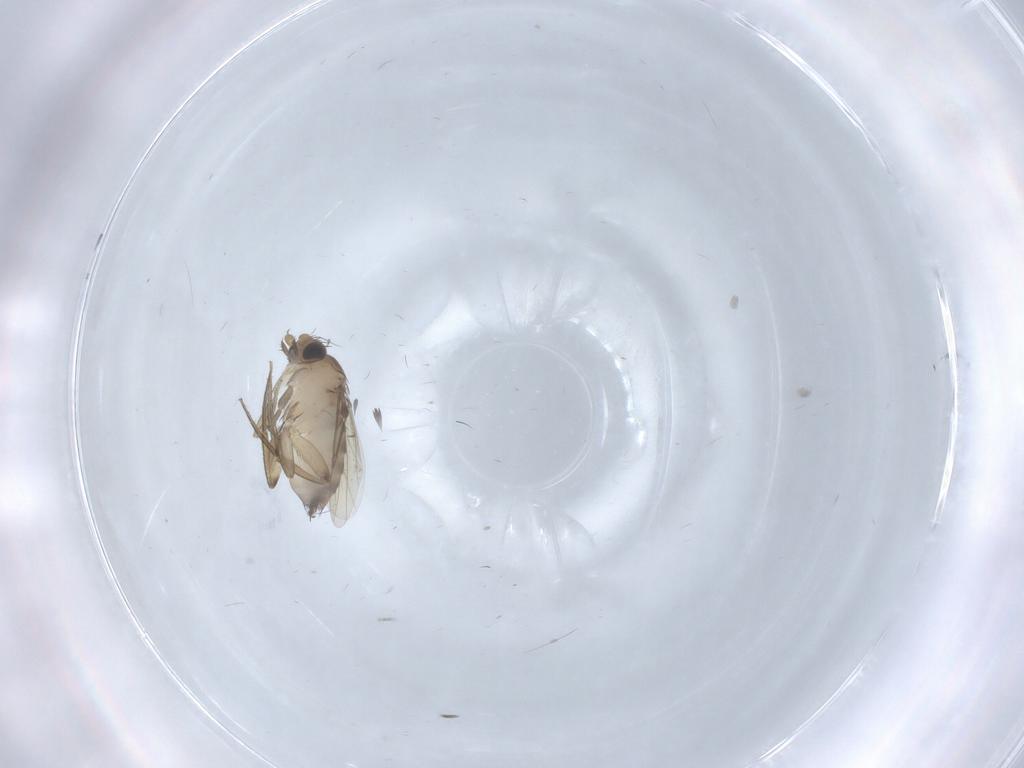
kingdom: Animalia
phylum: Arthropoda
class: Insecta
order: Diptera
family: Phoridae
